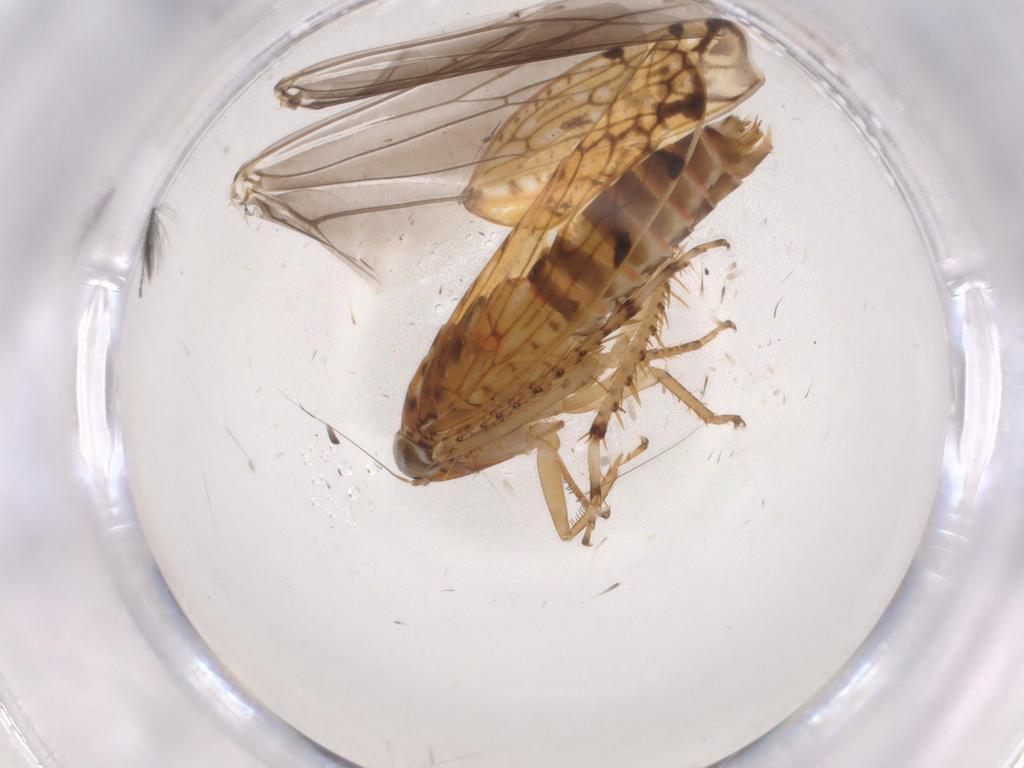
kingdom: Animalia
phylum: Arthropoda
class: Insecta
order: Hemiptera
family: Cicadellidae
